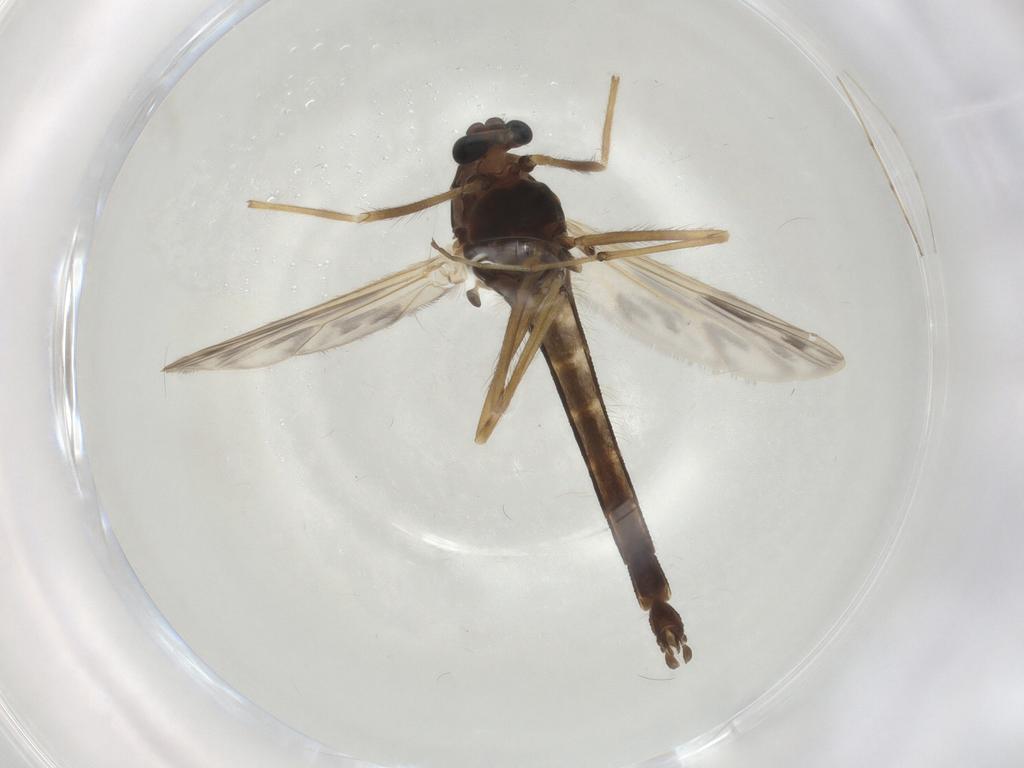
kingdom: Animalia
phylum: Arthropoda
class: Insecta
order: Diptera
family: Chironomidae
